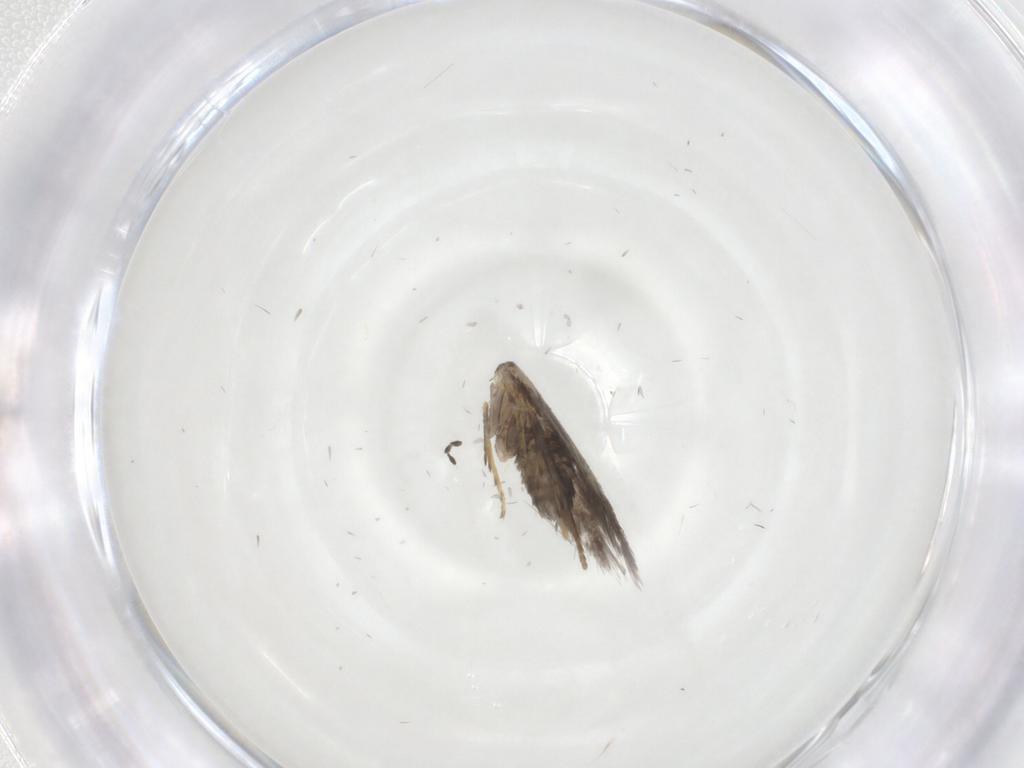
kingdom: Animalia
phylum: Arthropoda
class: Insecta
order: Lepidoptera
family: Nepticulidae
